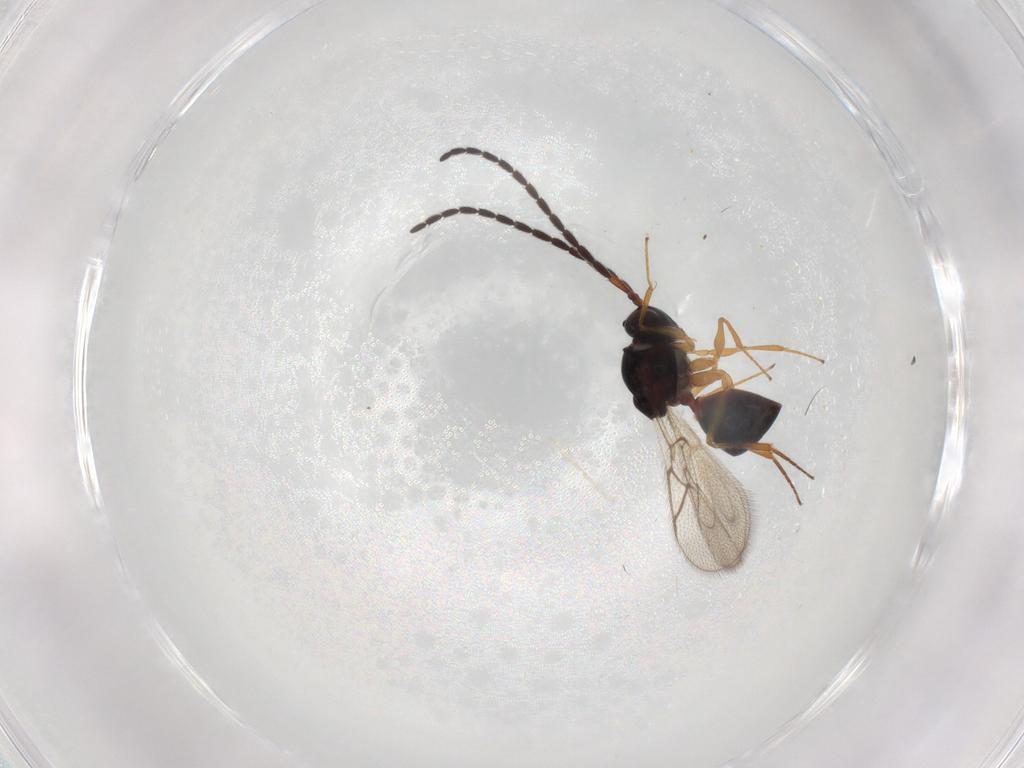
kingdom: Animalia
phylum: Arthropoda
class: Insecta
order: Hymenoptera
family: Figitidae
